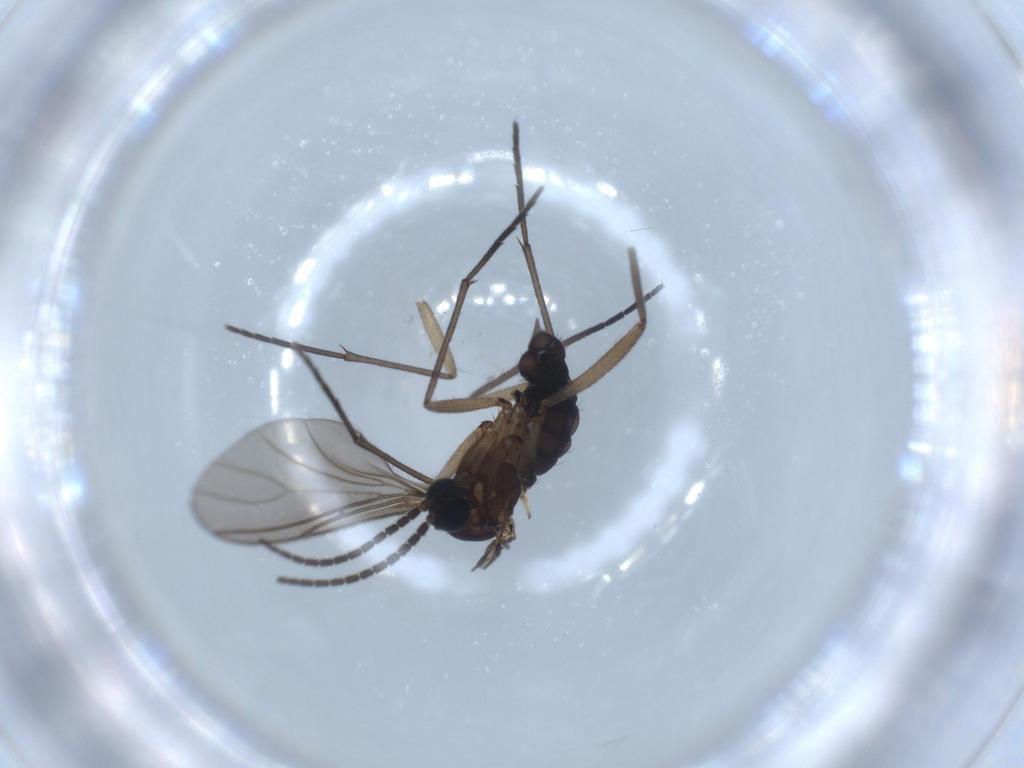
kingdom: Animalia
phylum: Arthropoda
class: Insecta
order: Diptera
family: Sciaridae
